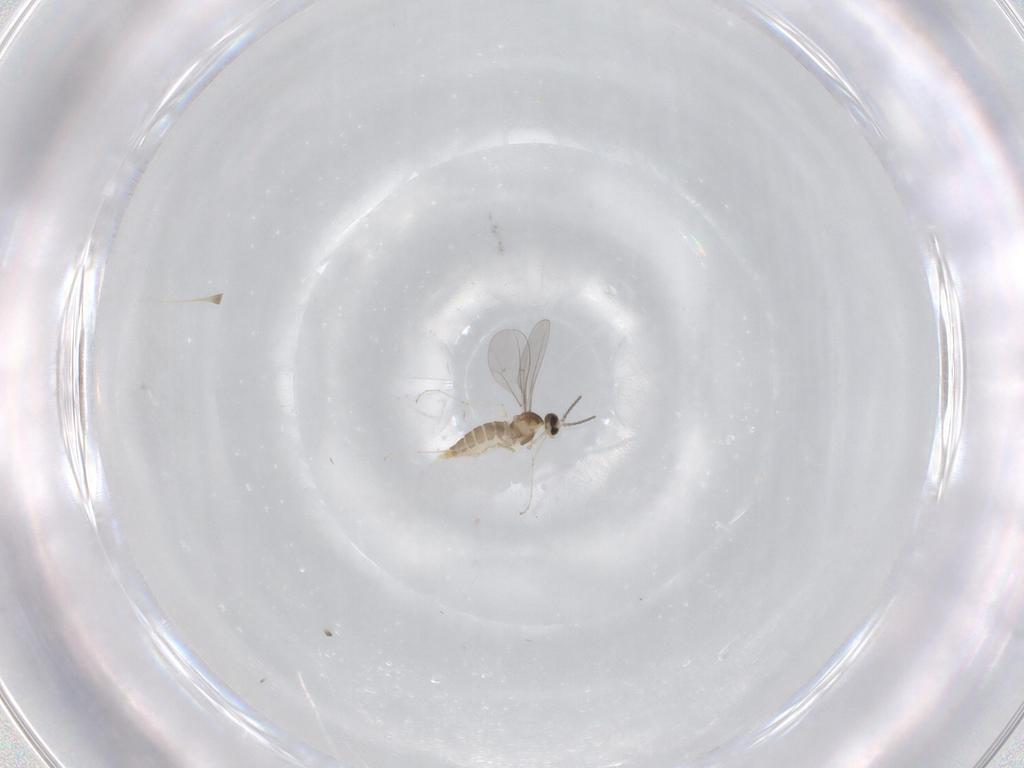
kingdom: Animalia
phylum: Arthropoda
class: Insecta
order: Diptera
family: Cecidomyiidae
